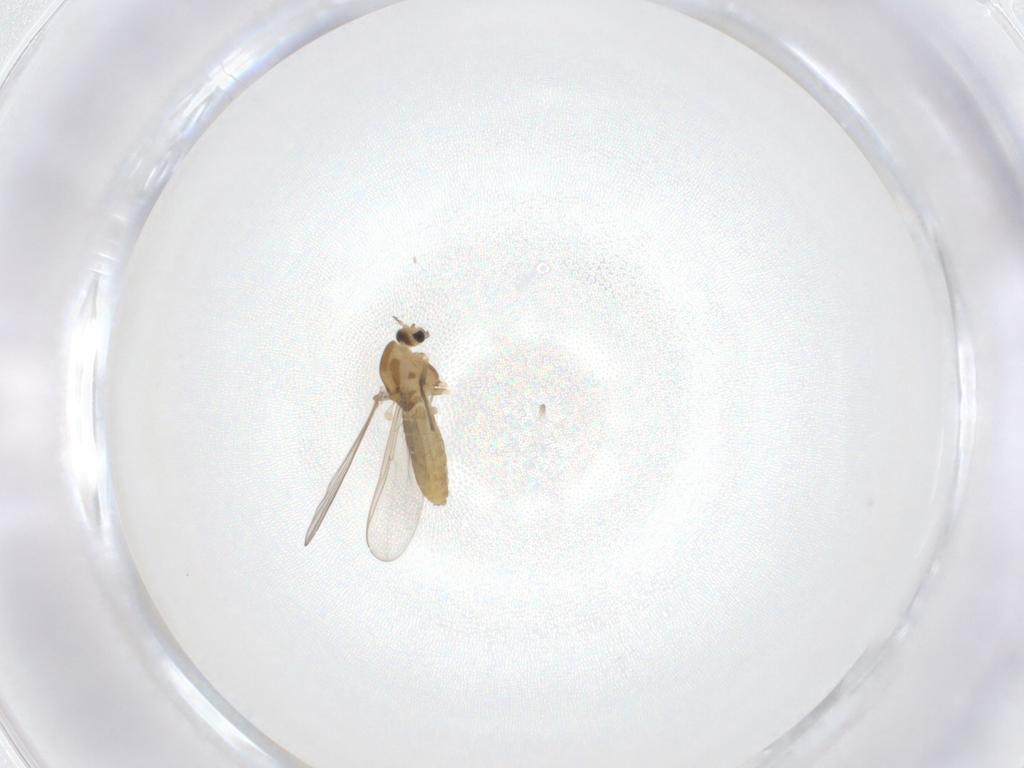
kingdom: Animalia
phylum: Arthropoda
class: Insecta
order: Diptera
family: Chironomidae
